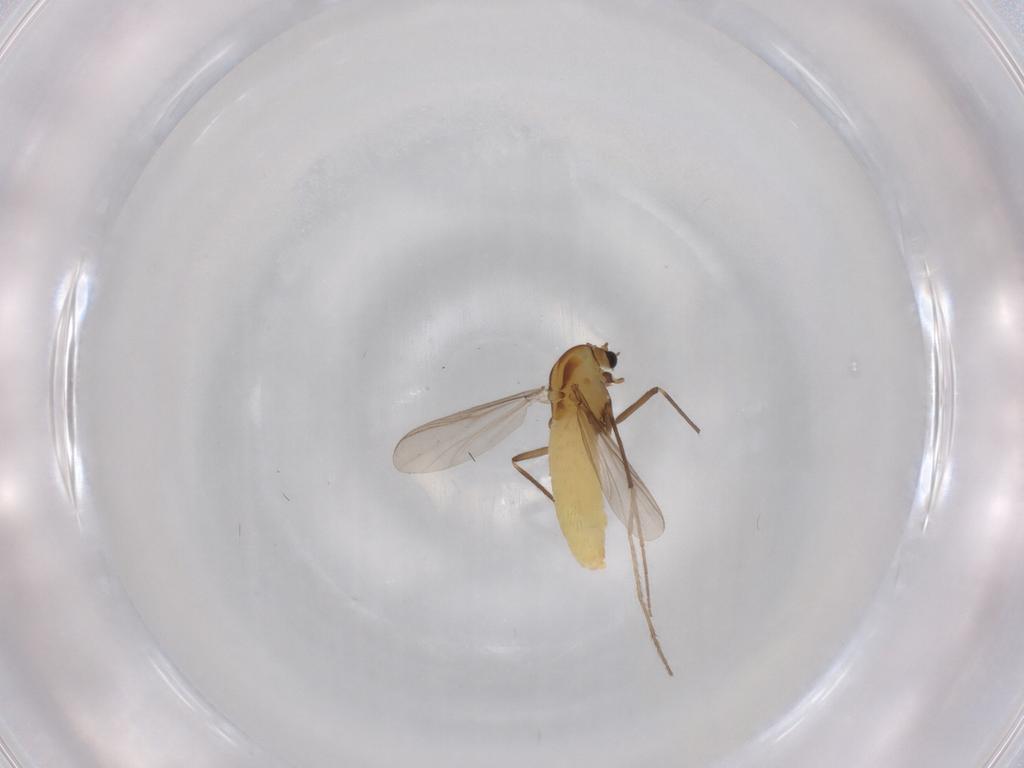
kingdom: Animalia
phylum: Arthropoda
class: Insecta
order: Diptera
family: Chironomidae
